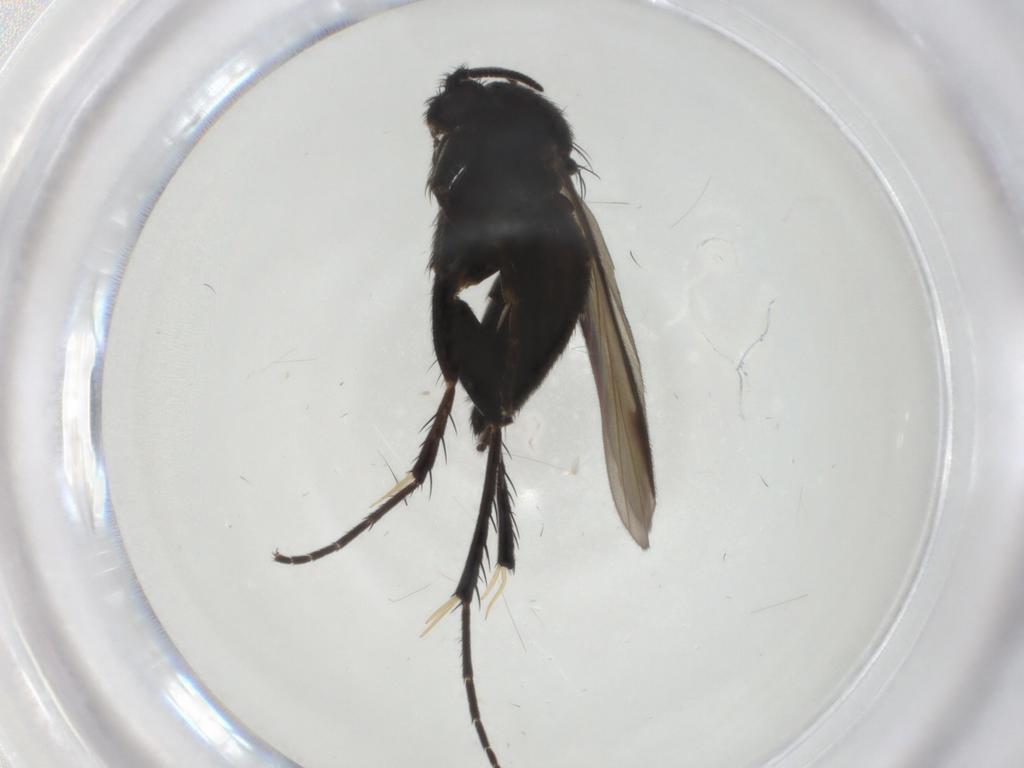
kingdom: Animalia
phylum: Arthropoda
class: Insecta
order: Diptera
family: Mycetophilidae
